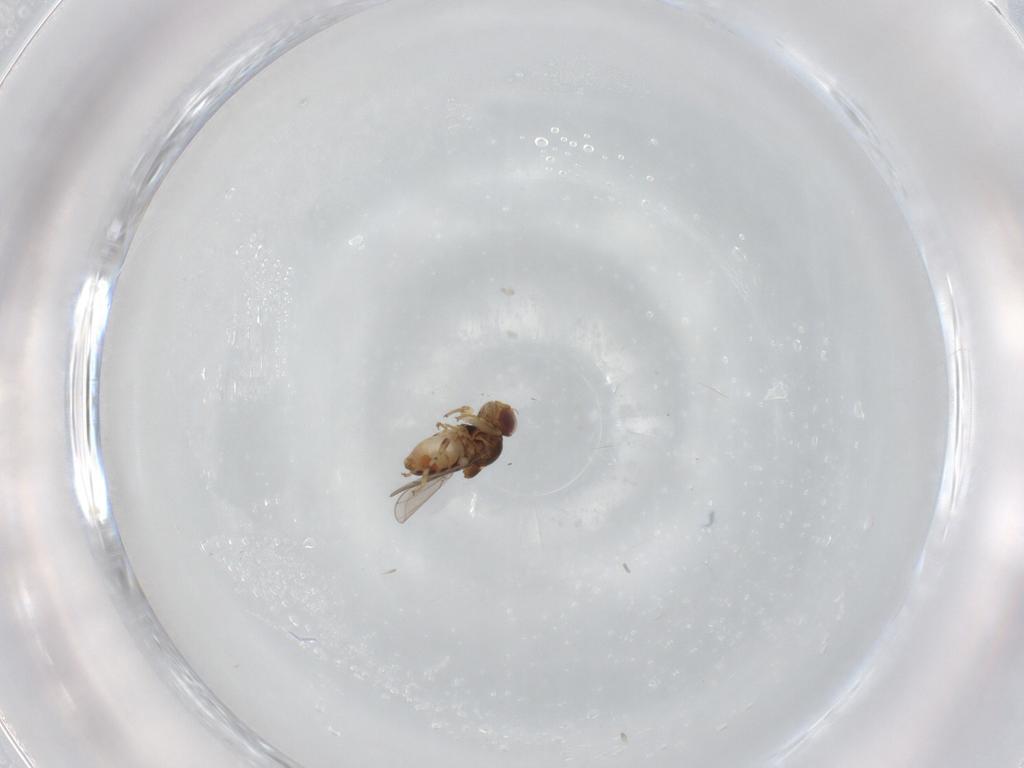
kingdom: Animalia
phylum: Arthropoda
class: Insecta
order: Diptera
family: Chloropidae
